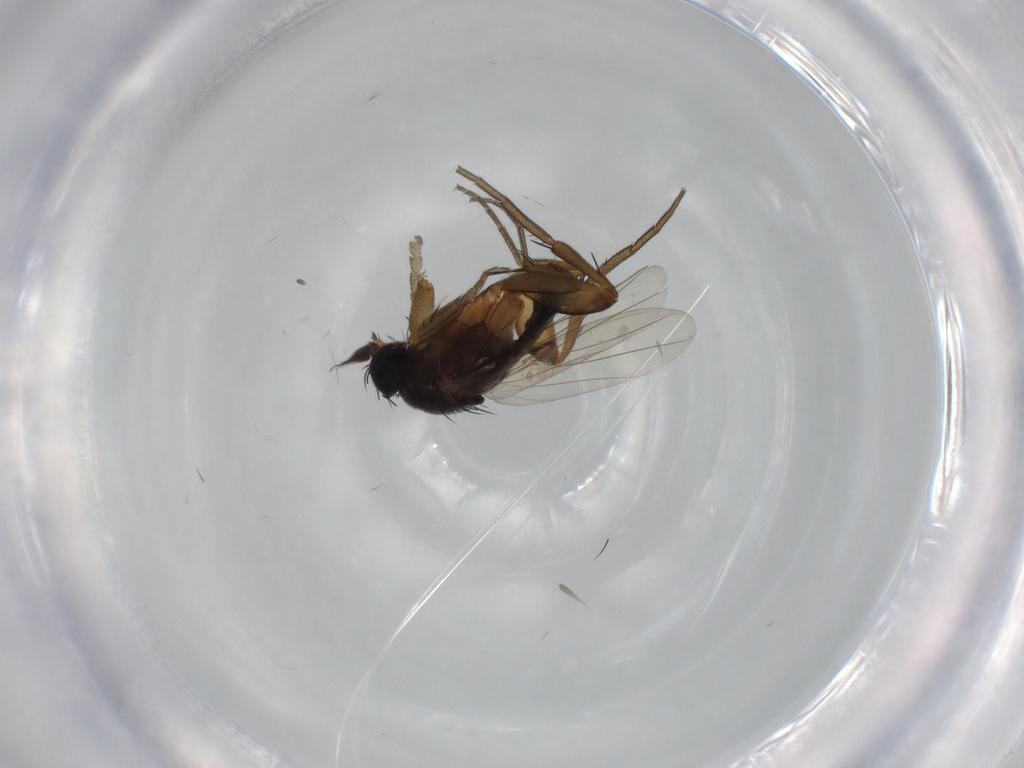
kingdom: Animalia
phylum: Arthropoda
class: Insecta
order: Diptera
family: Phoridae
